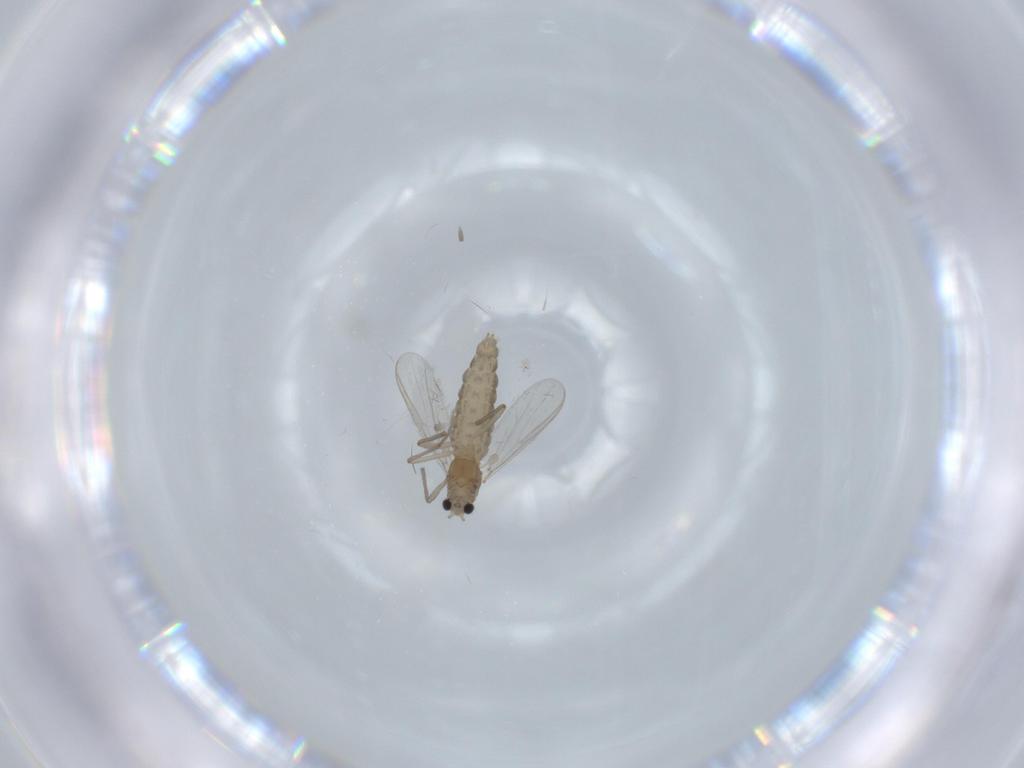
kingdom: Animalia
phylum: Arthropoda
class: Insecta
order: Diptera
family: Chironomidae
